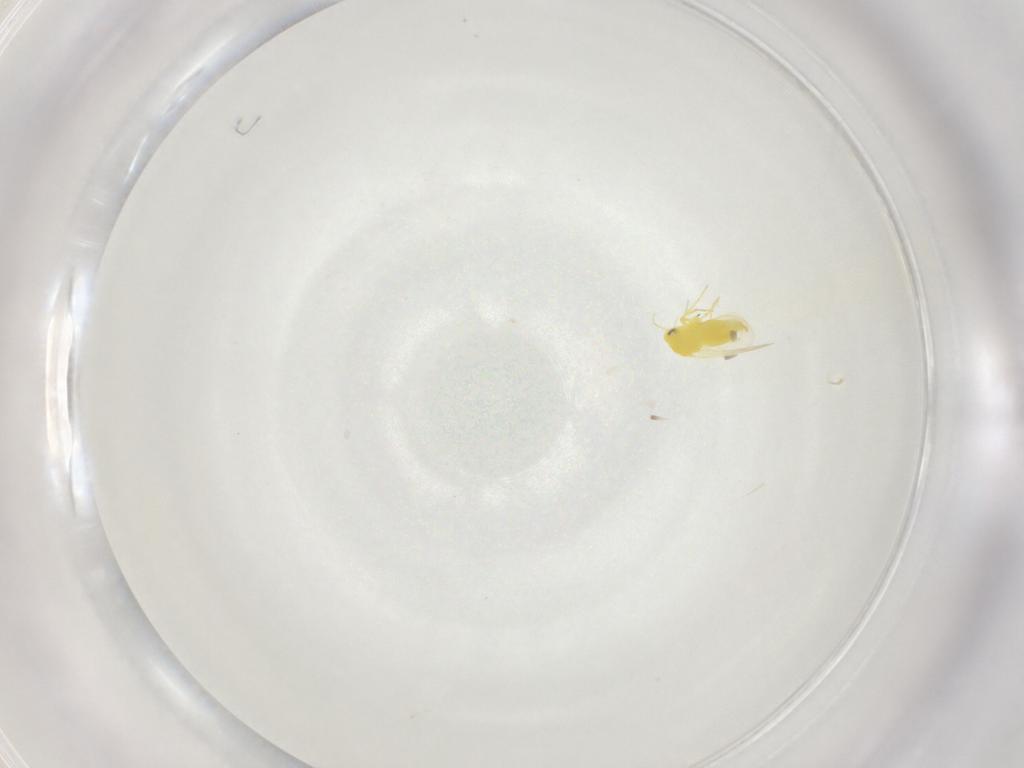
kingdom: Animalia
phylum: Arthropoda
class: Insecta
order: Hemiptera
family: Aleyrodidae
